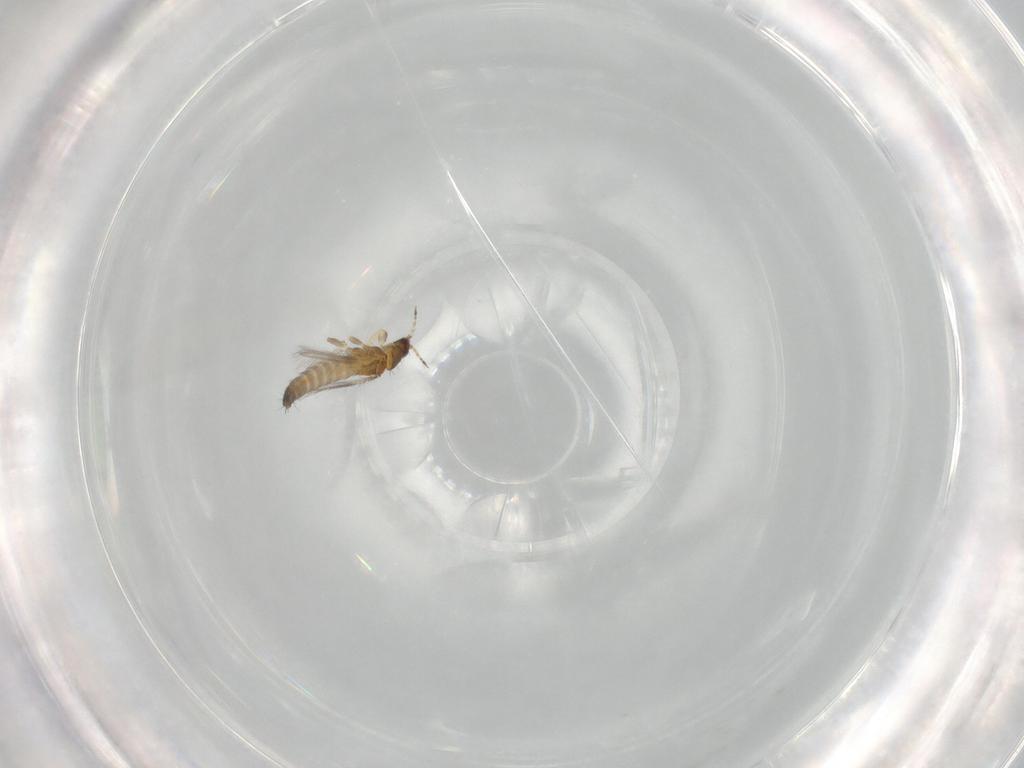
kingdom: Animalia
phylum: Arthropoda
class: Insecta
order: Thysanoptera
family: Thripidae
